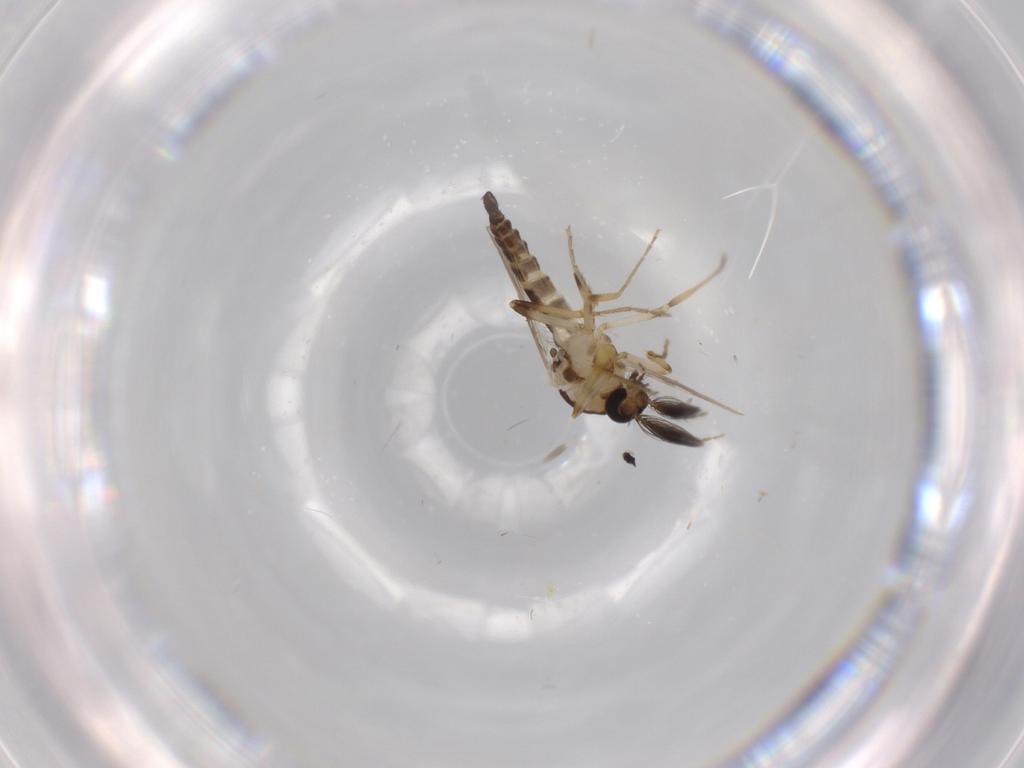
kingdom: Animalia
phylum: Arthropoda
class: Insecta
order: Diptera
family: Ceratopogonidae
